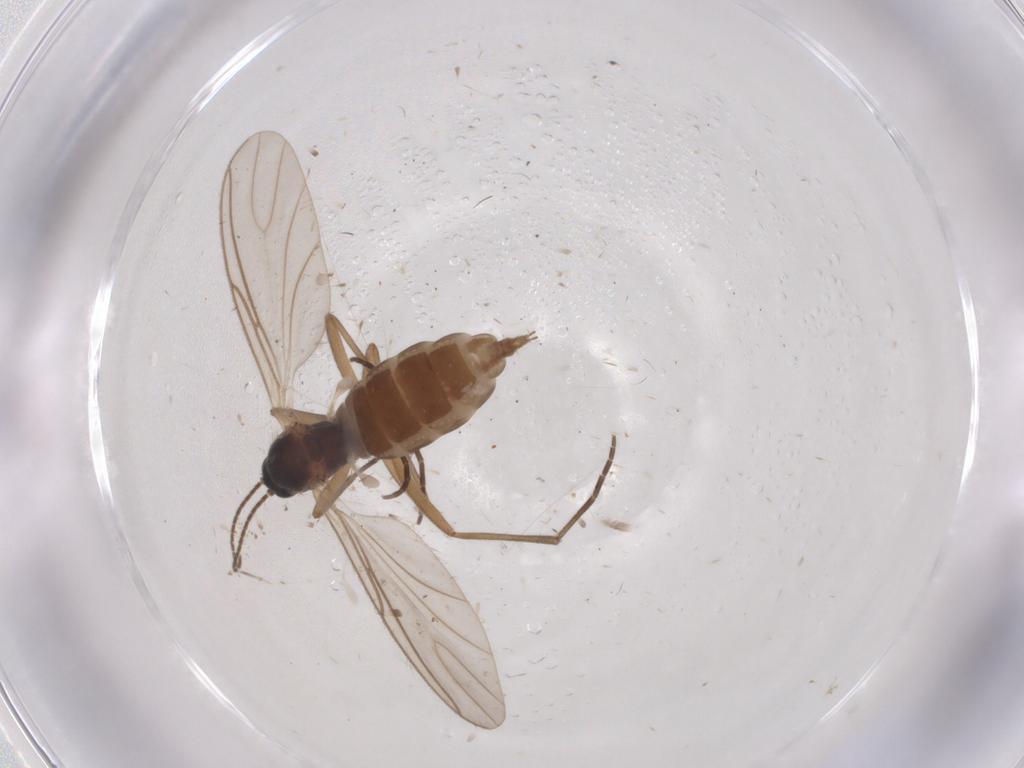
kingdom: Animalia
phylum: Arthropoda
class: Insecta
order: Diptera
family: Sciaridae
